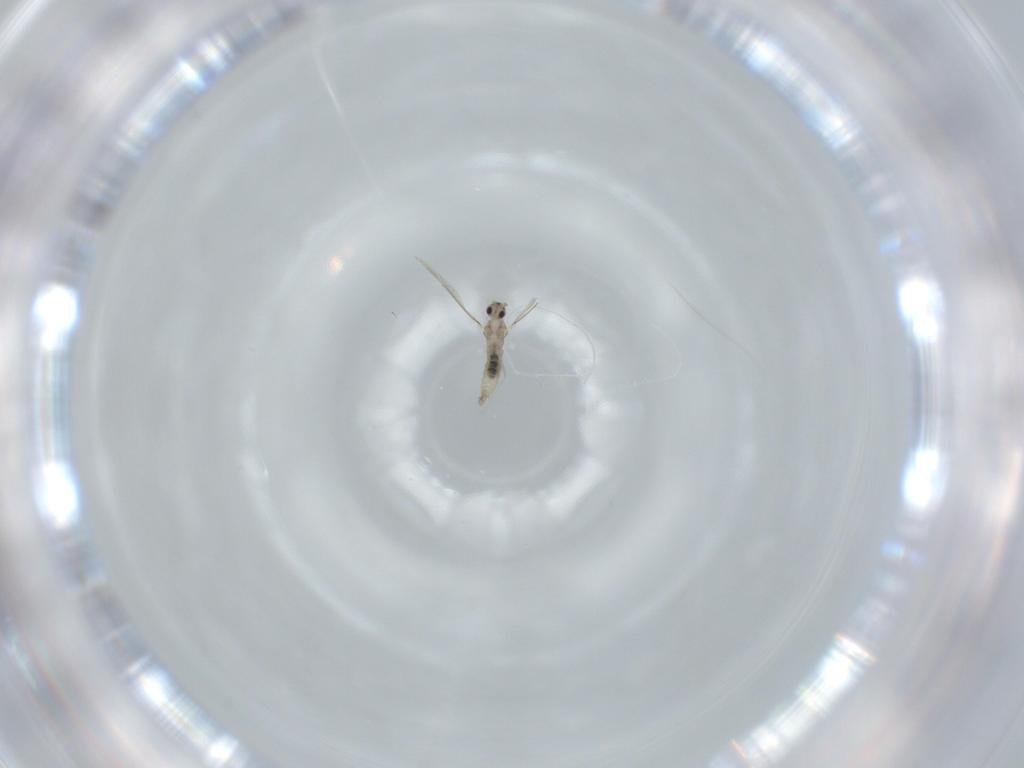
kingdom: Animalia
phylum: Arthropoda
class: Insecta
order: Diptera
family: Cecidomyiidae
